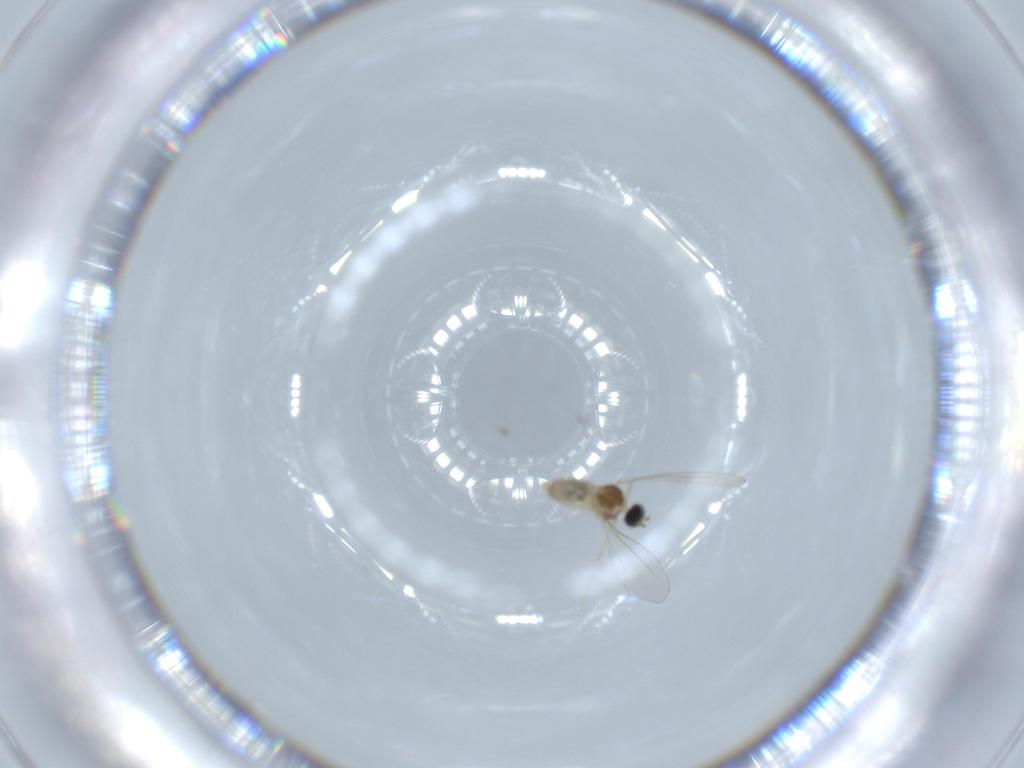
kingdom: Animalia
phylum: Arthropoda
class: Insecta
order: Diptera
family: Cecidomyiidae
